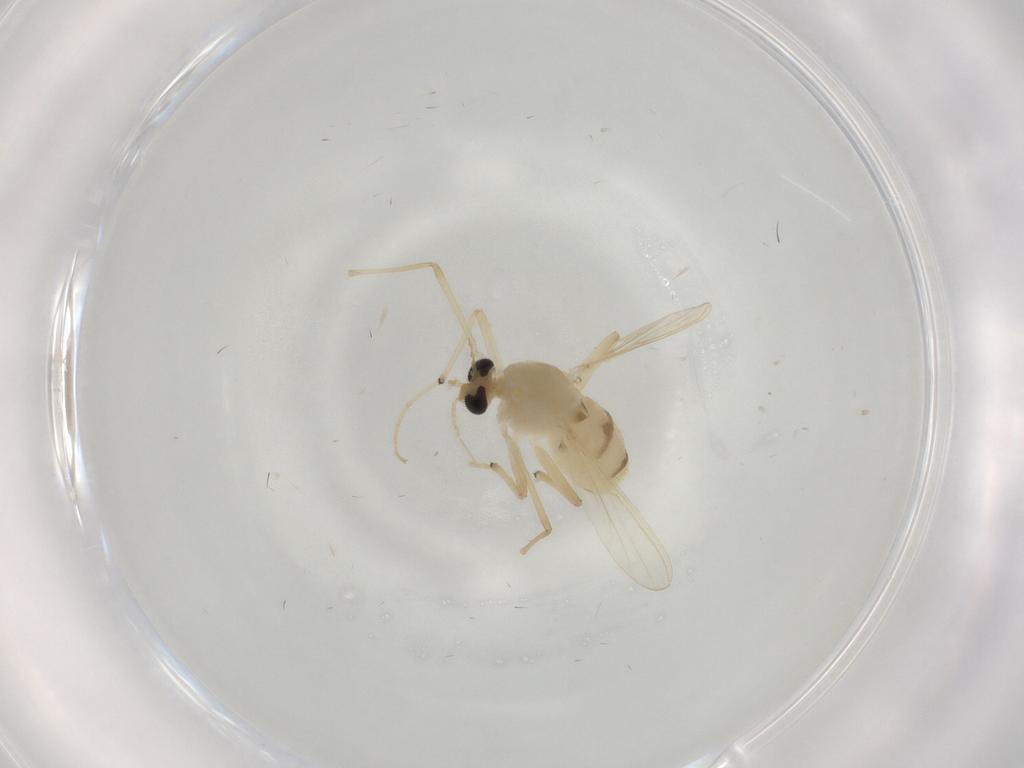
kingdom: Animalia
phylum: Arthropoda
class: Insecta
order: Diptera
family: Chironomidae
